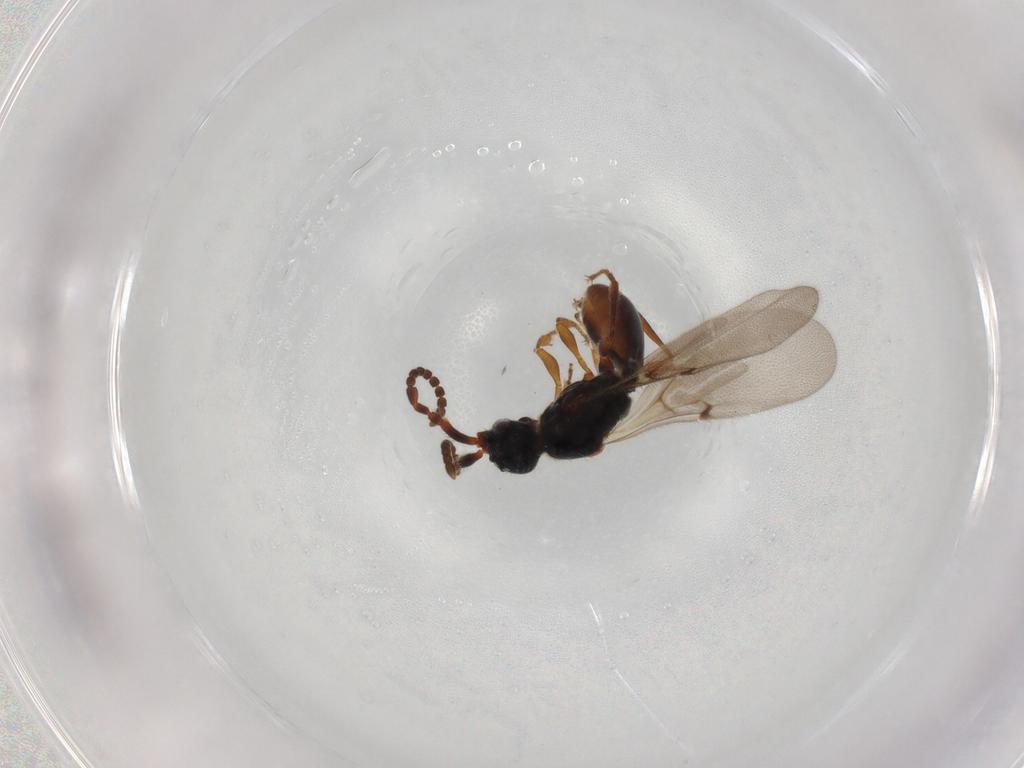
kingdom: Animalia
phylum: Arthropoda
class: Insecta
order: Hymenoptera
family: Diapriidae
